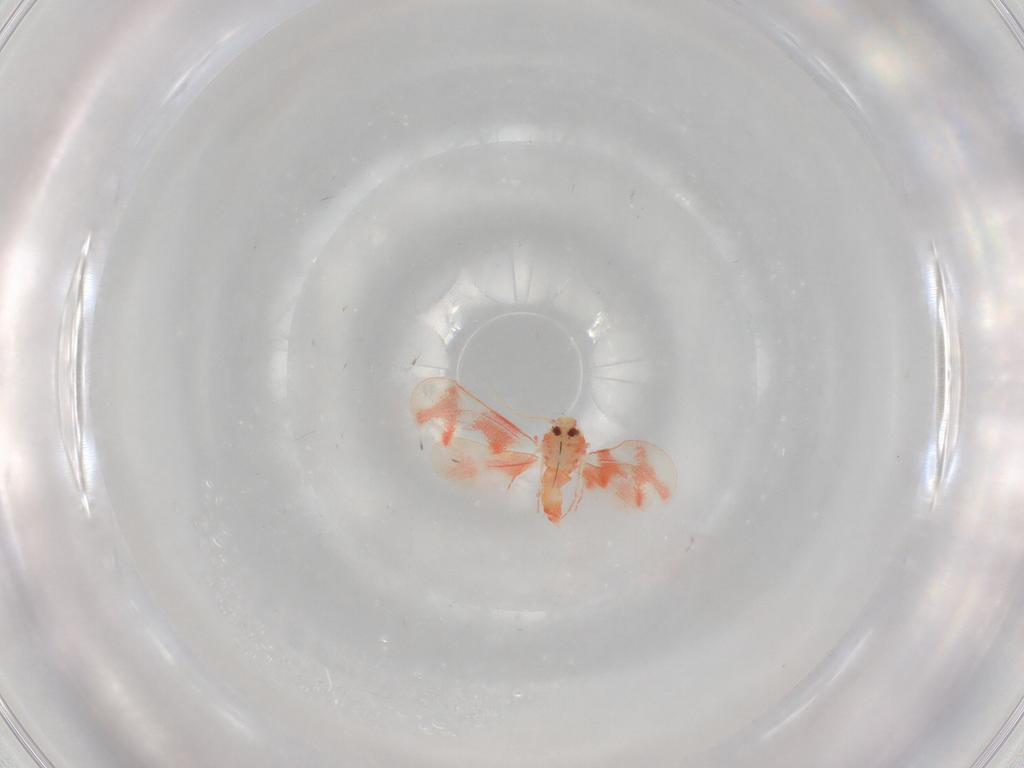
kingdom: Animalia
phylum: Arthropoda
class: Insecta
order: Hemiptera
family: Aleyrodidae
